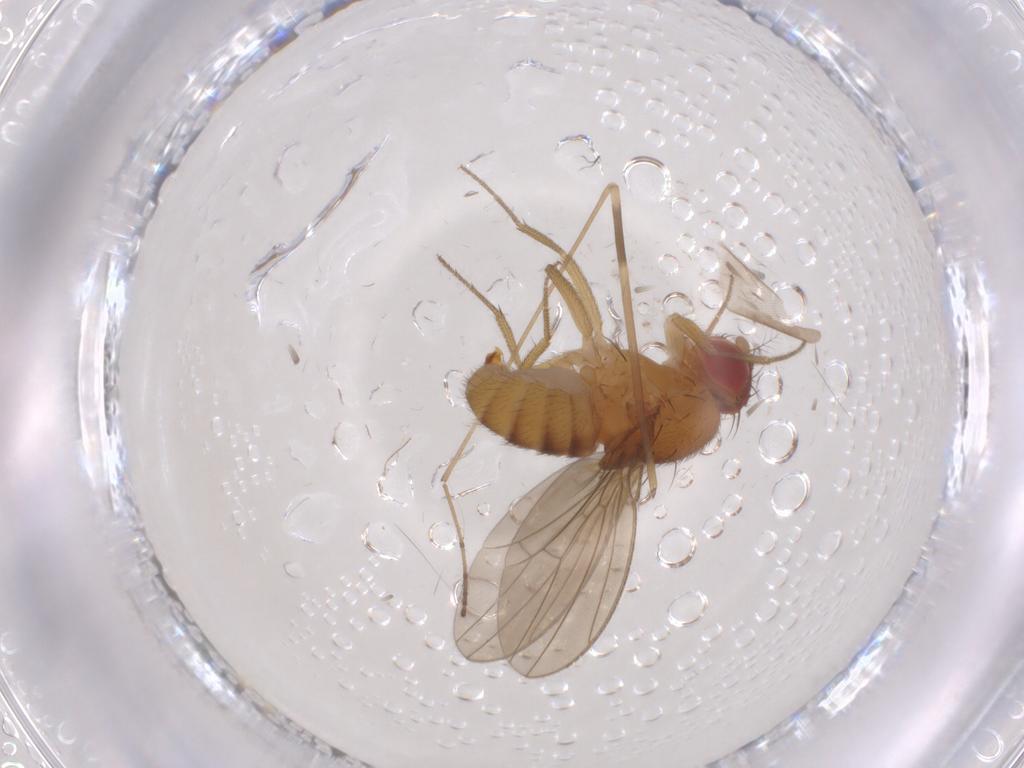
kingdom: Animalia
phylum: Arthropoda
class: Insecta
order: Diptera
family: Drosophilidae
